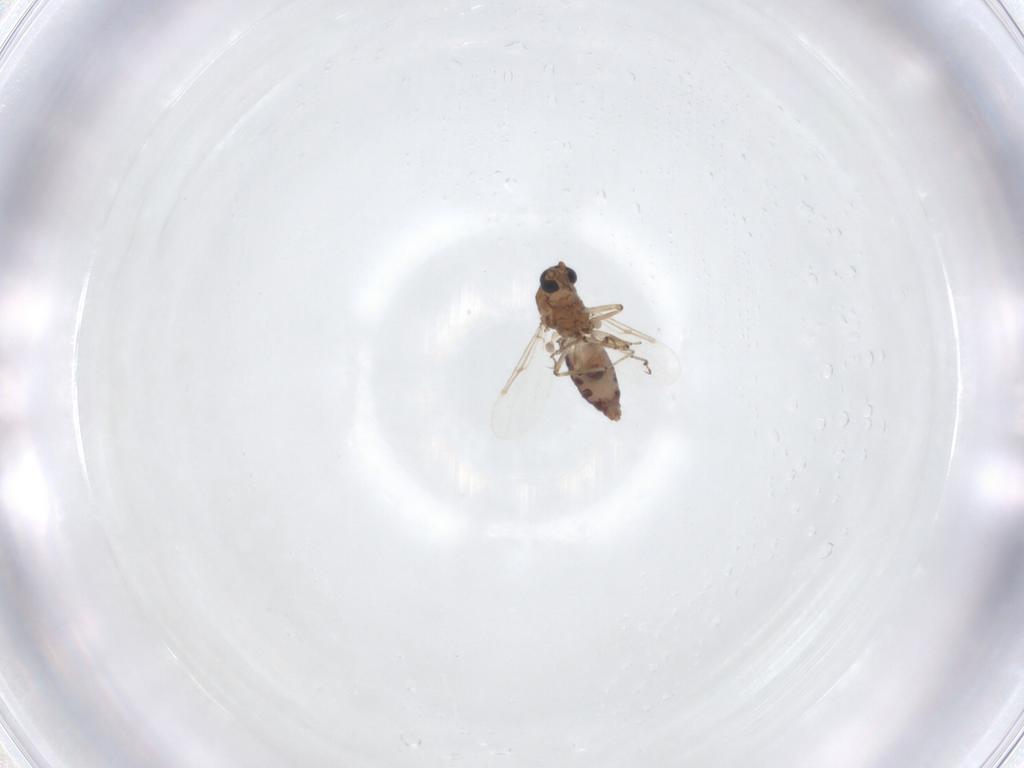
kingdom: Animalia
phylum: Arthropoda
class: Insecta
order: Diptera
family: Ceratopogonidae
